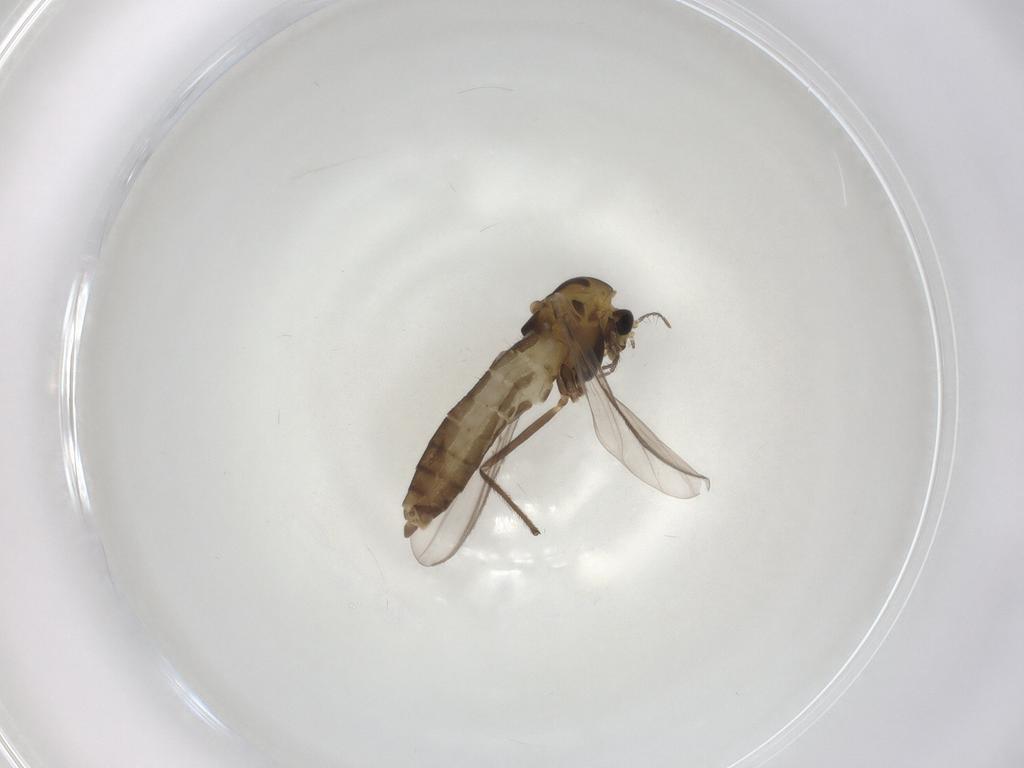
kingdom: Animalia
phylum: Arthropoda
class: Insecta
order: Diptera
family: Chironomidae
